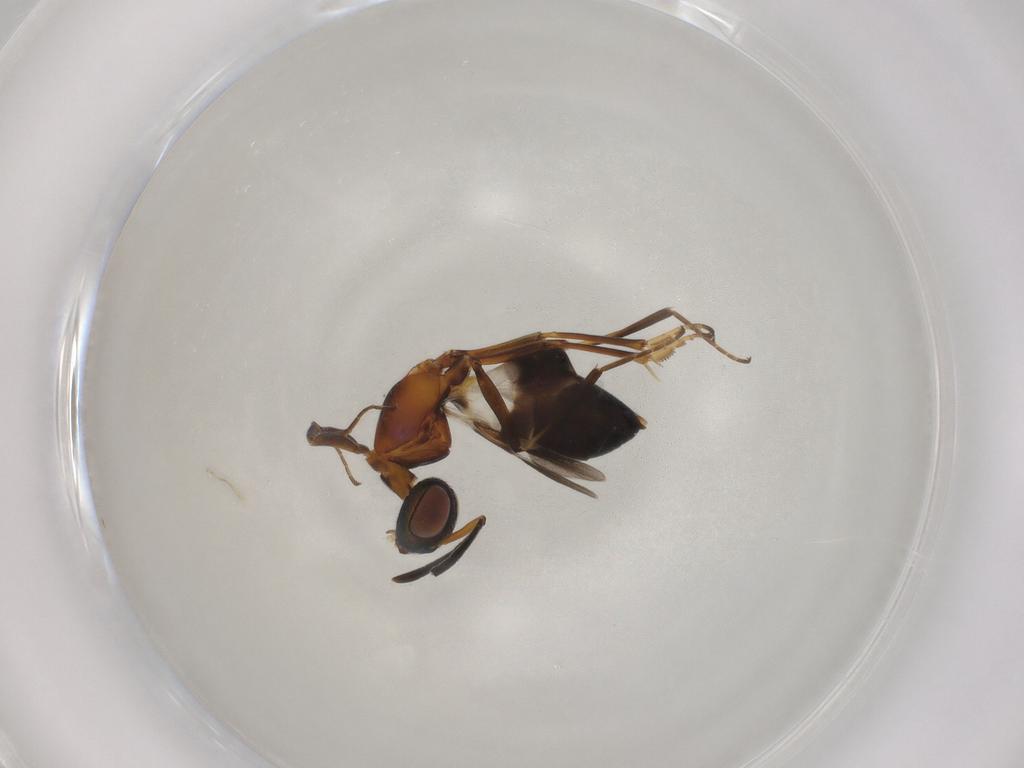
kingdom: Animalia
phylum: Arthropoda
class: Insecta
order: Hymenoptera
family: Eupelmidae
